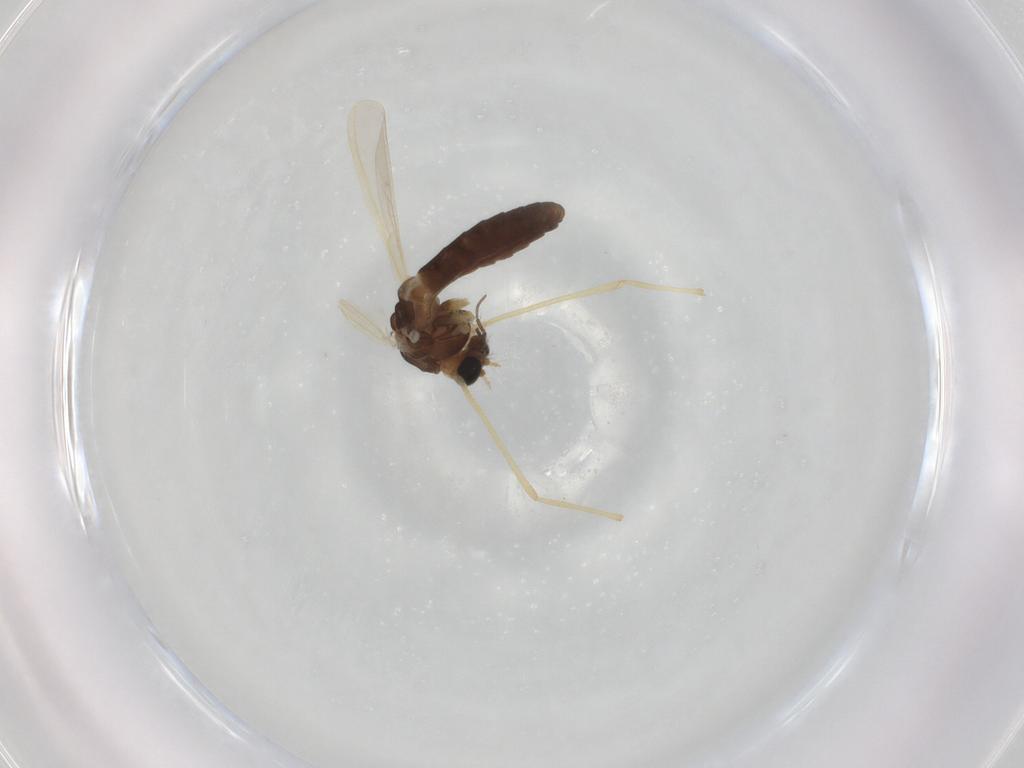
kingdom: Animalia
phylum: Arthropoda
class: Insecta
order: Diptera
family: Chironomidae
